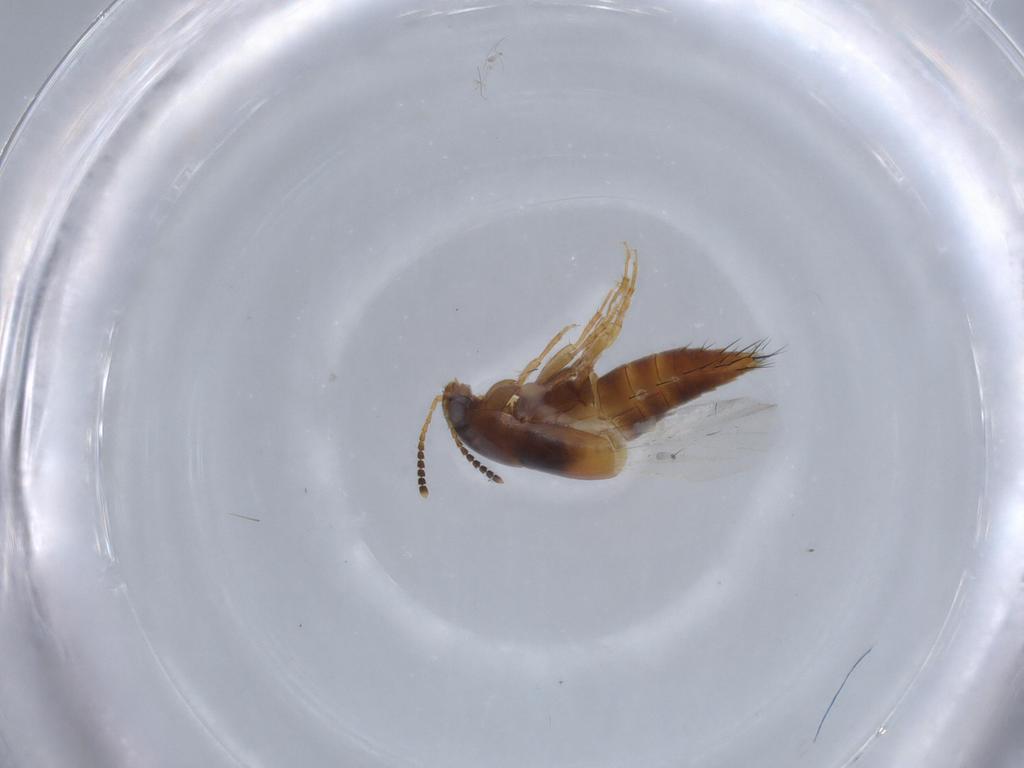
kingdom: Animalia
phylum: Arthropoda
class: Insecta
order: Coleoptera
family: Staphylinidae
